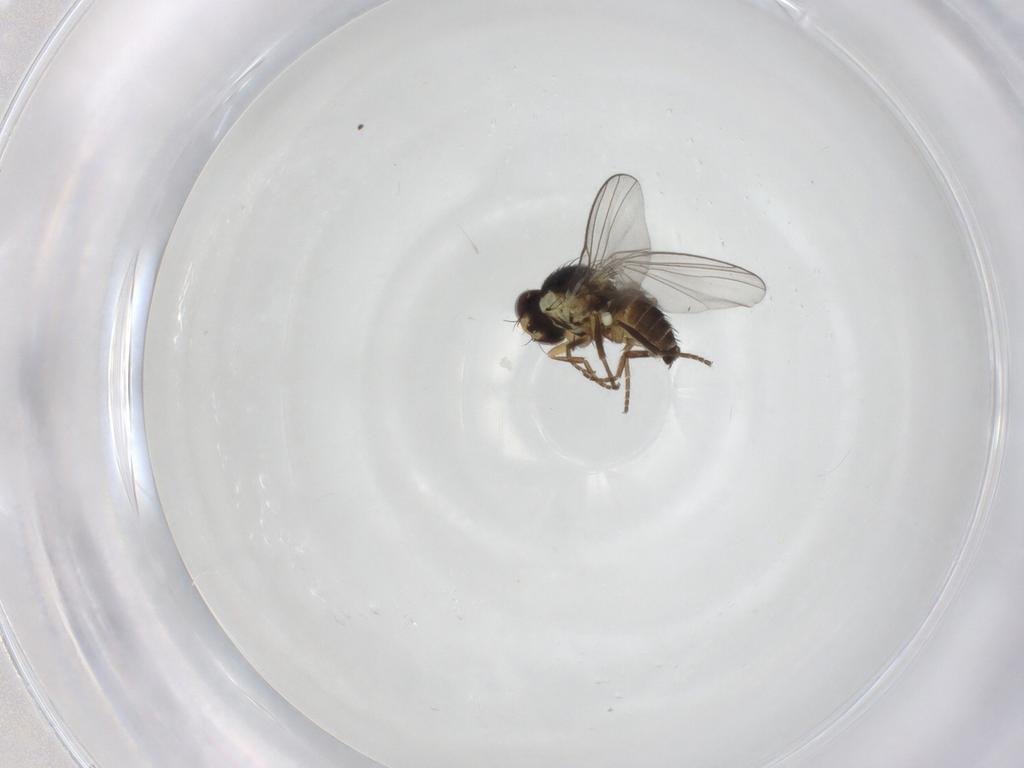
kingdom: Animalia
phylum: Arthropoda
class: Insecta
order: Diptera
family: Agromyzidae
